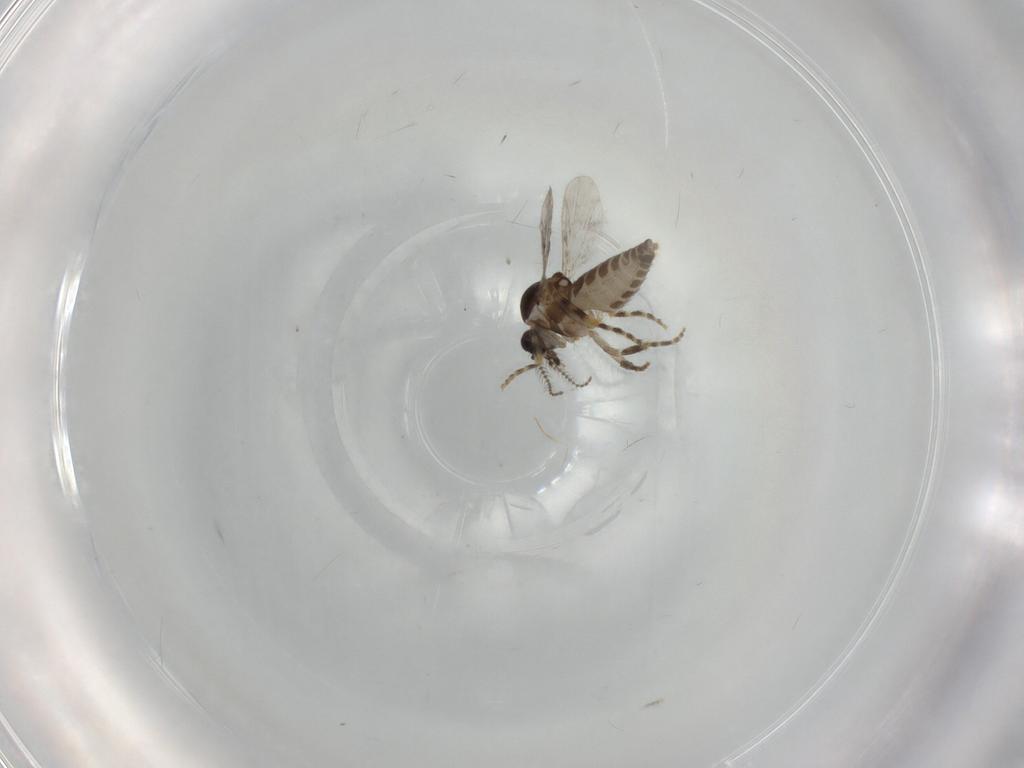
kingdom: Animalia
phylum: Arthropoda
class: Insecta
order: Diptera
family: Ceratopogonidae
